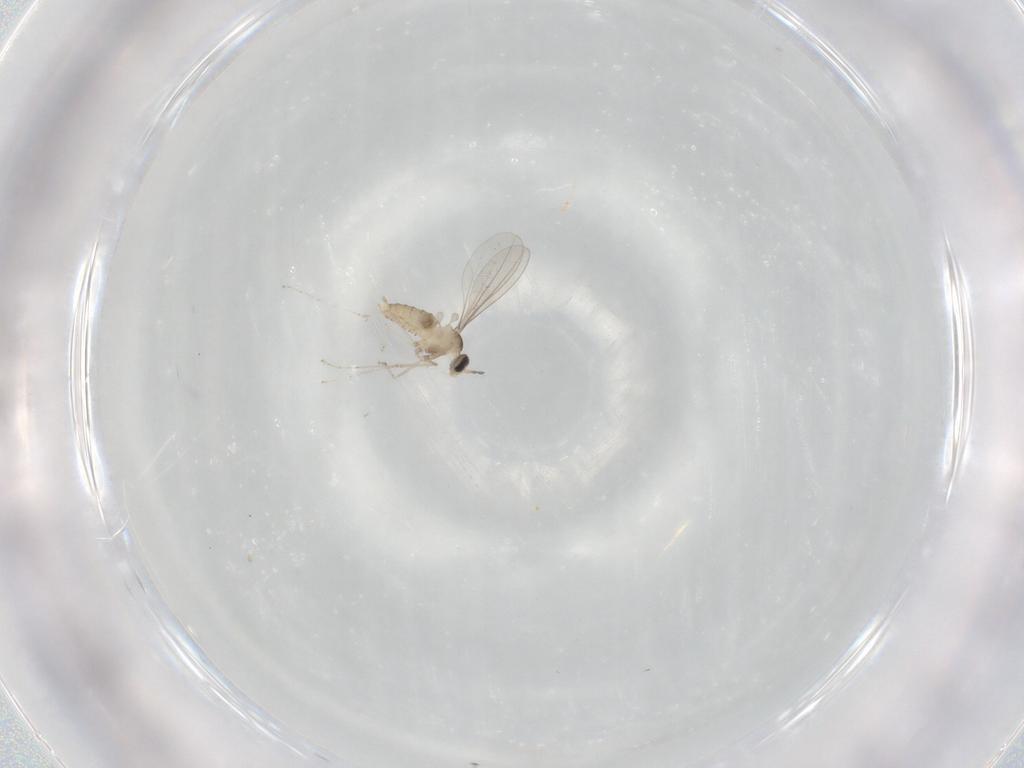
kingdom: Animalia
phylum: Arthropoda
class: Insecta
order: Diptera
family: Cecidomyiidae
